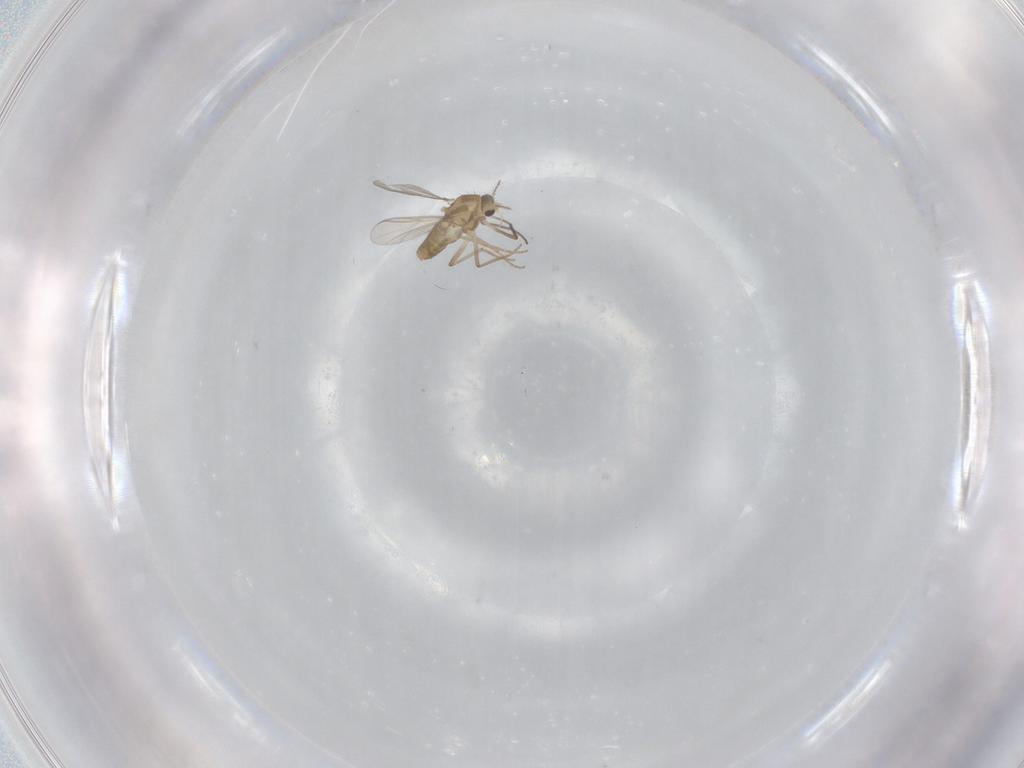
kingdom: Animalia
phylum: Arthropoda
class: Insecta
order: Diptera
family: Chironomidae
